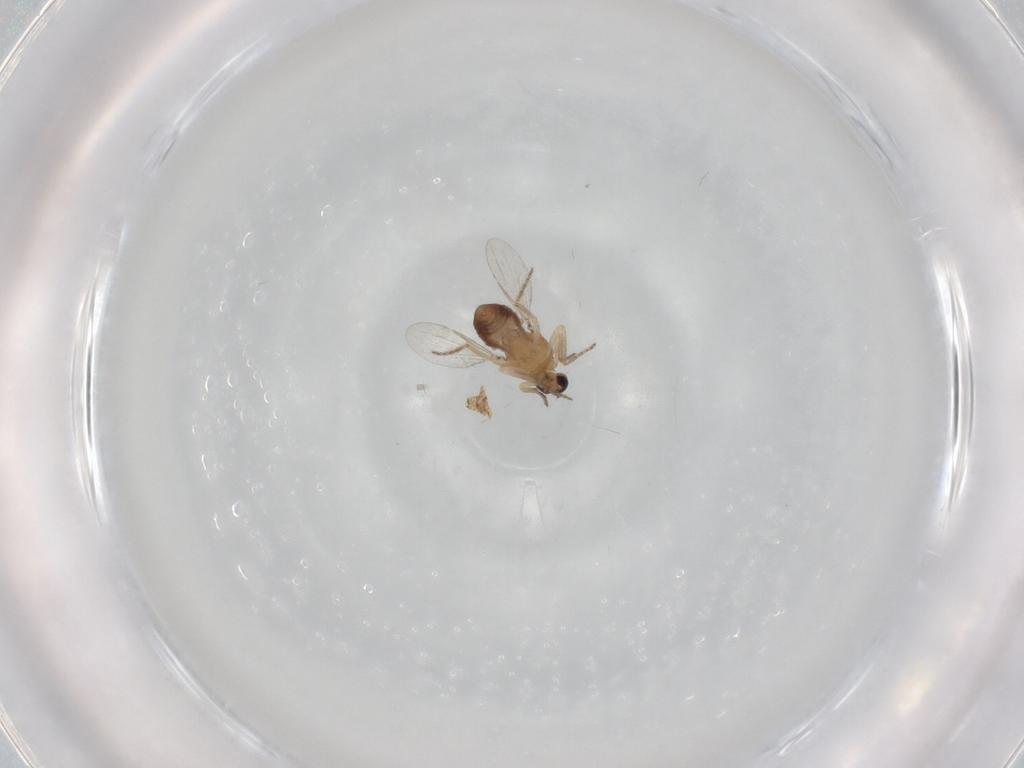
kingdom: Animalia
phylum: Arthropoda
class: Insecta
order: Diptera
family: Ceratopogonidae
